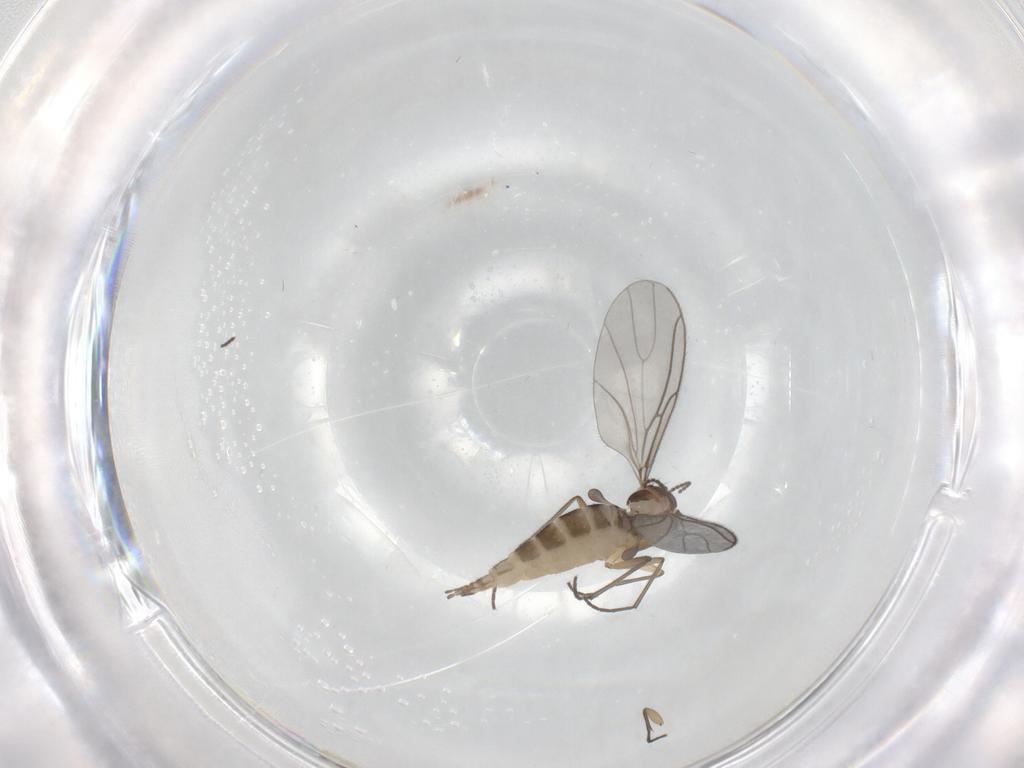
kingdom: Animalia
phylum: Arthropoda
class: Insecta
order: Diptera
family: Sciaridae
